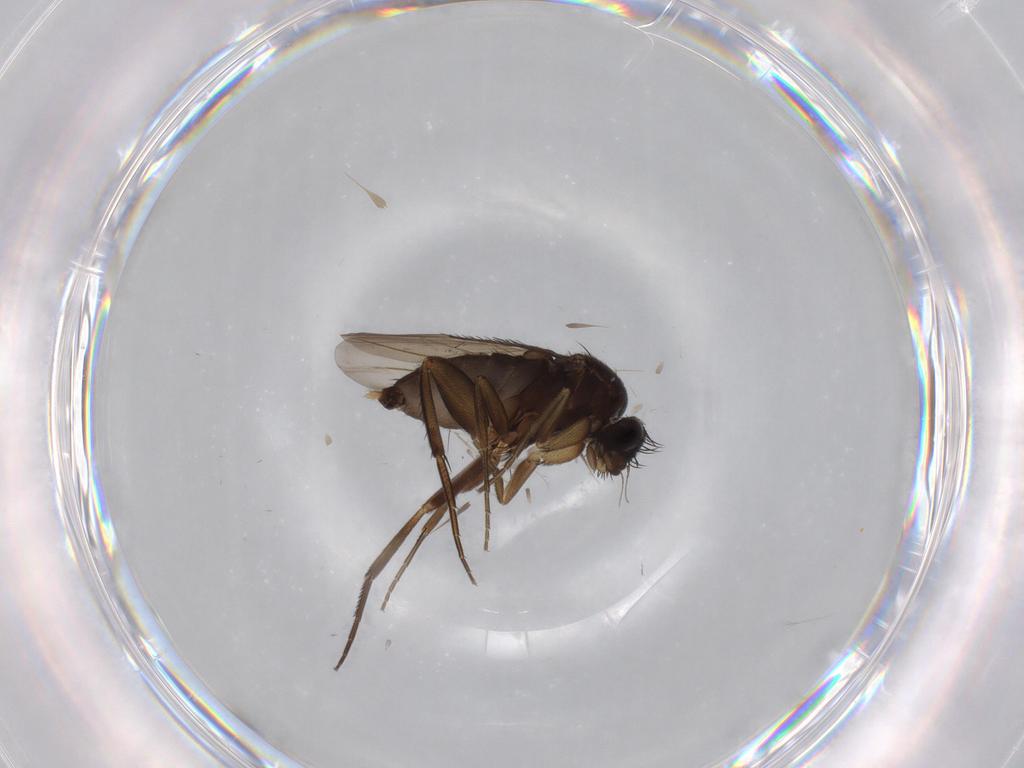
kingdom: Animalia
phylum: Arthropoda
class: Insecta
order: Diptera
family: Phoridae
